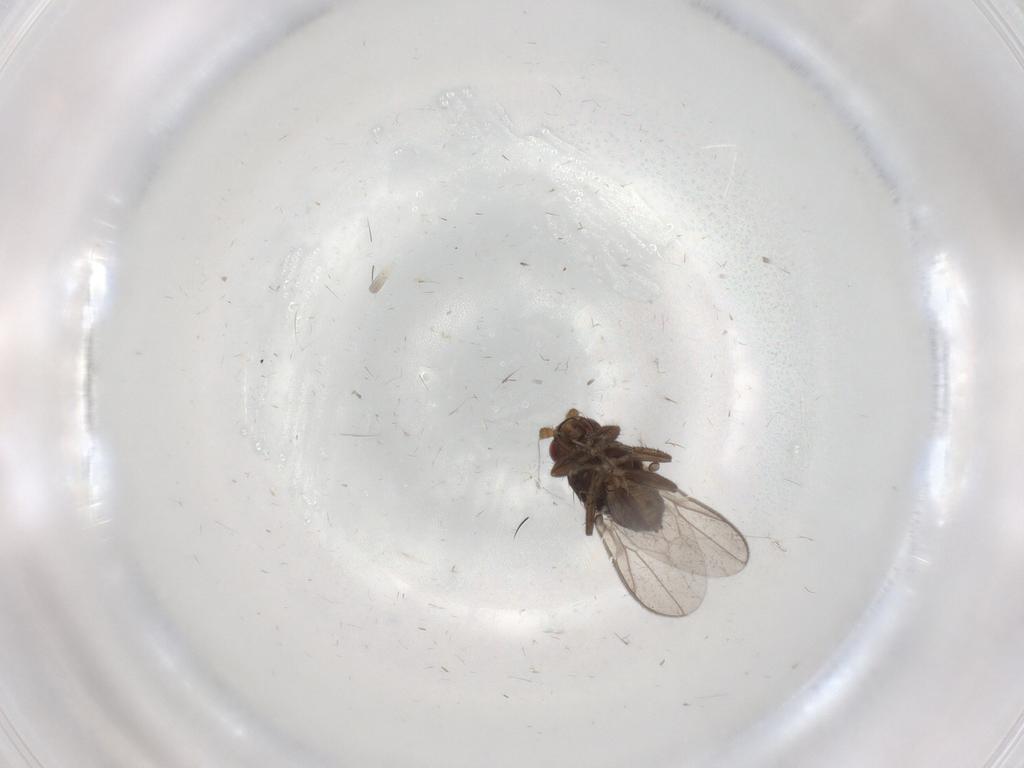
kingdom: Animalia
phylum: Arthropoda
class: Insecta
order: Diptera
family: Sphaeroceridae
